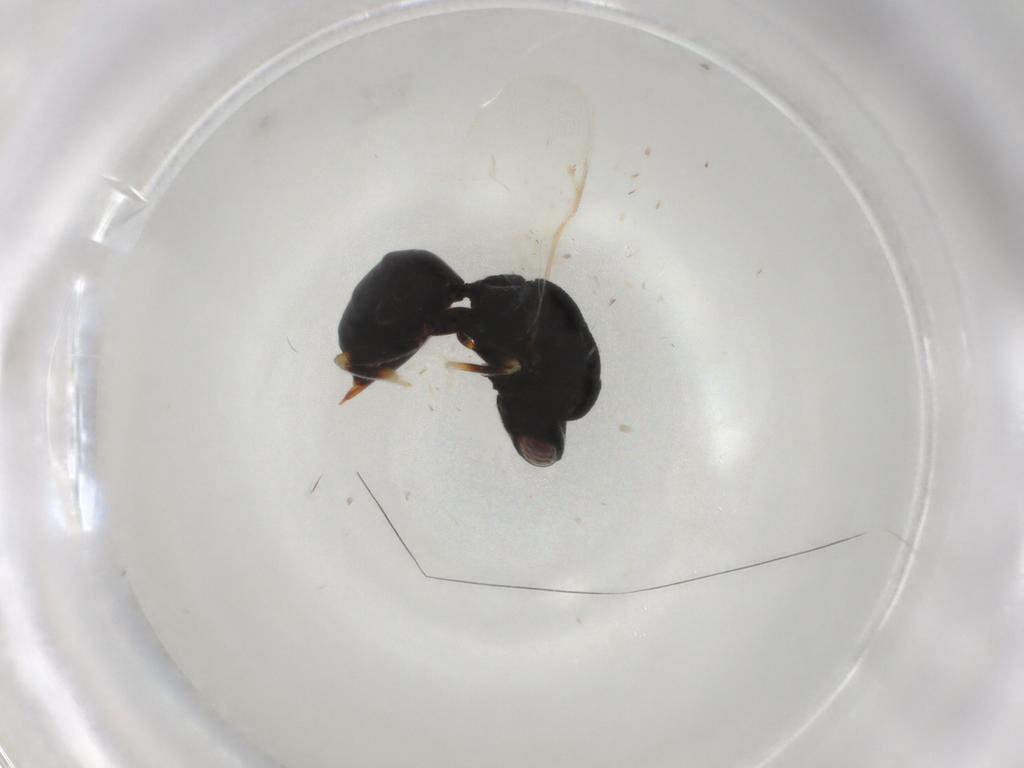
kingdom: Animalia
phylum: Arthropoda
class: Insecta
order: Hymenoptera
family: Eurytomidae
